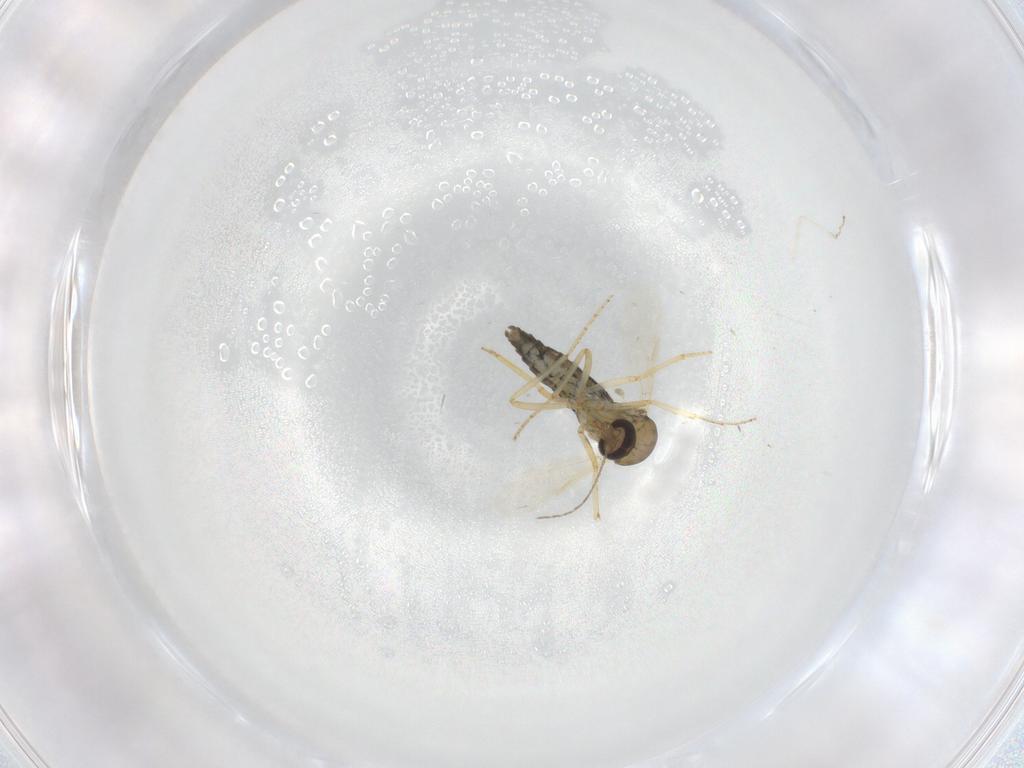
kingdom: Animalia
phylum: Arthropoda
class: Insecta
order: Diptera
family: Ceratopogonidae
